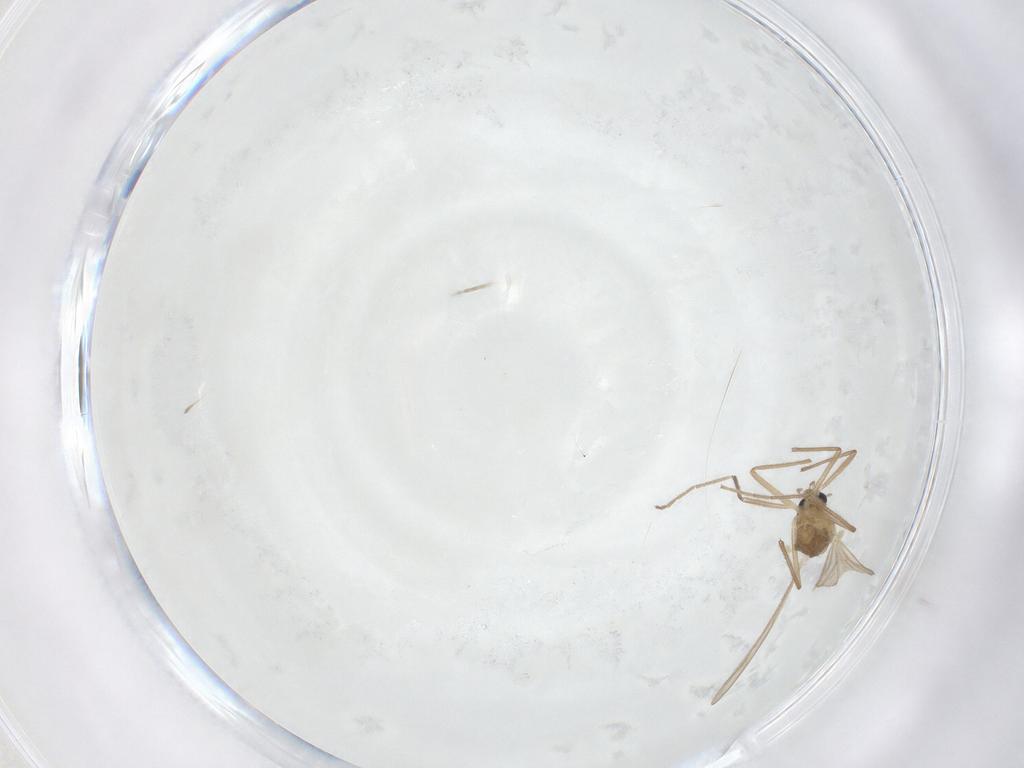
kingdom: Animalia
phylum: Arthropoda
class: Insecta
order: Diptera
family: Chironomidae
